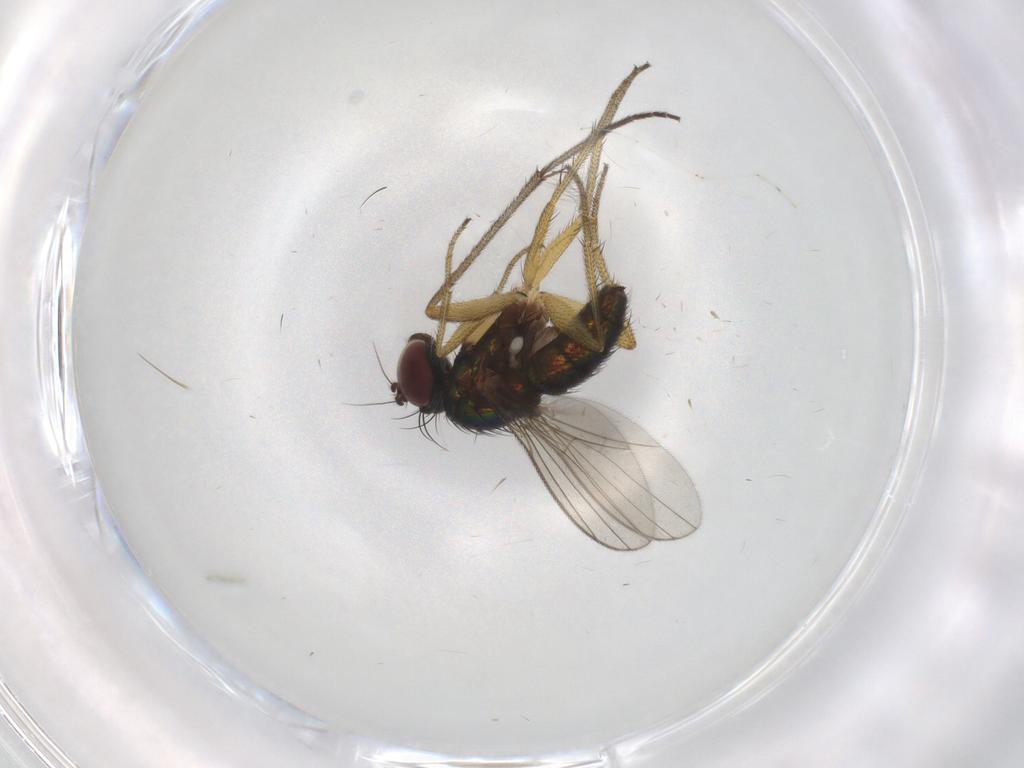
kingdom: Animalia
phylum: Arthropoda
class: Insecta
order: Diptera
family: Dolichopodidae
